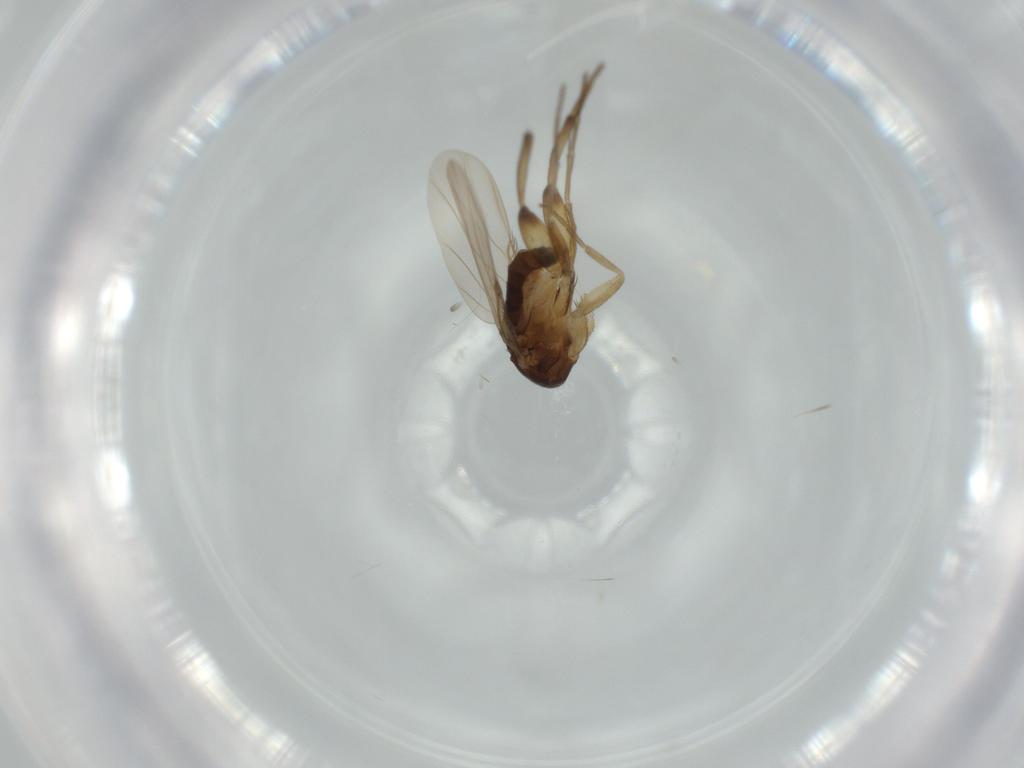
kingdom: Animalia
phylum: Arthropoda
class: Insecta
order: Diptera
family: Phoridae
